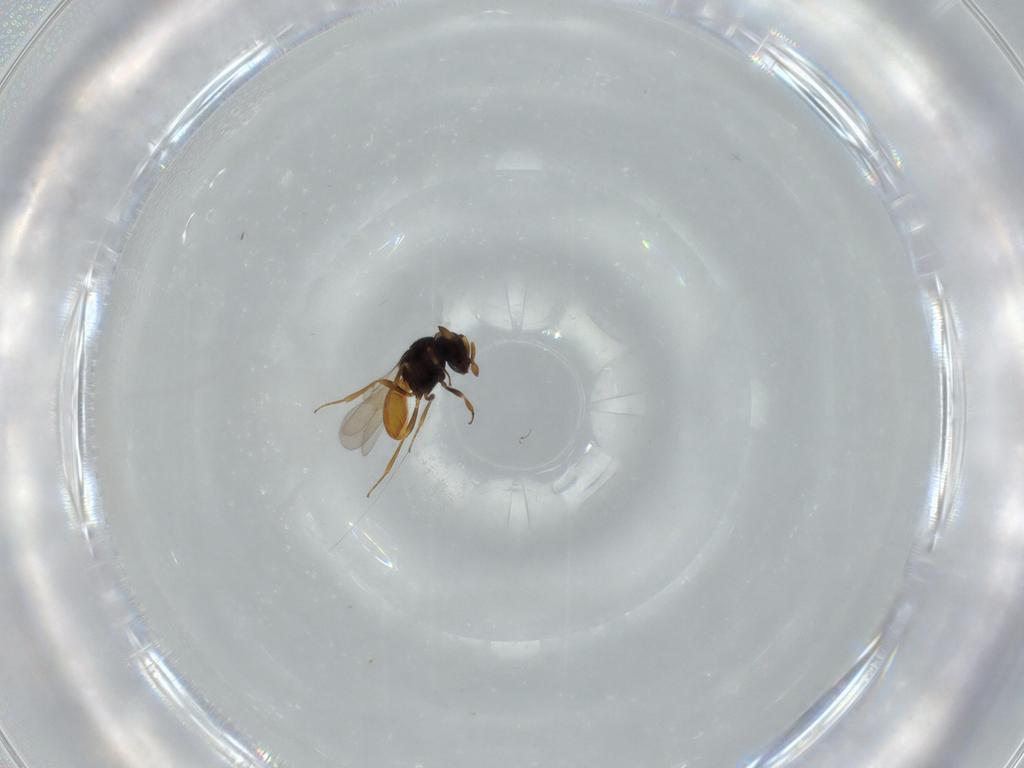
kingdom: Animalia
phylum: Arthropoda
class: Insecta
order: Hymenoptera
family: Scelionidae
